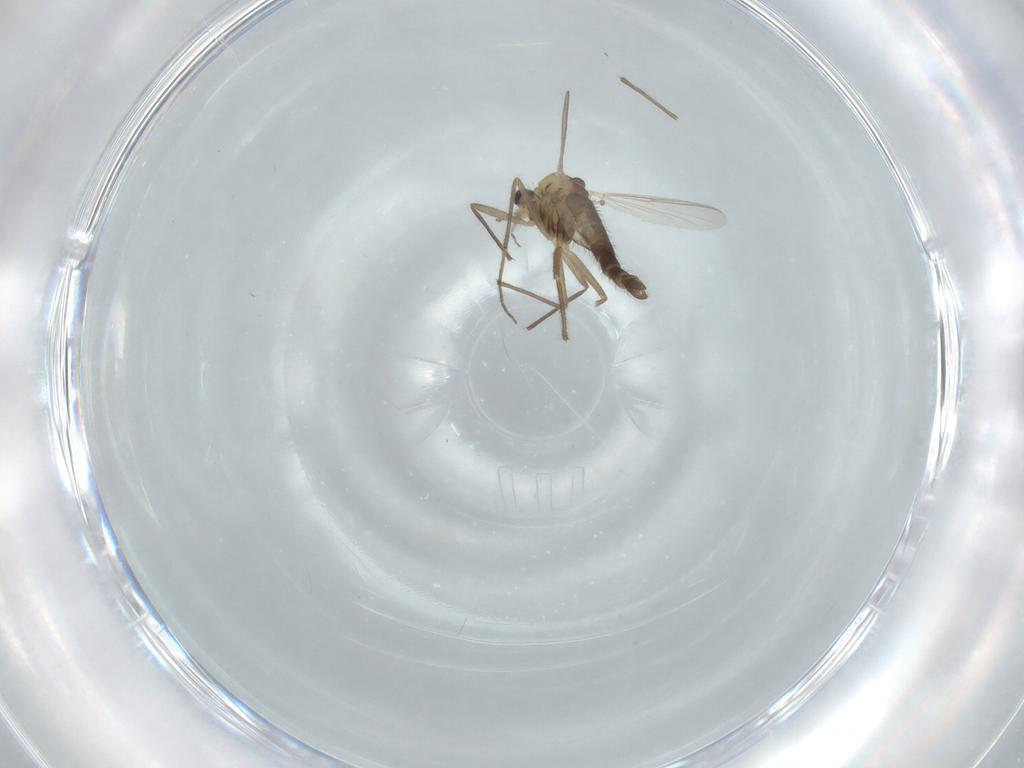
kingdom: Animalia
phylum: Arthropoda
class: Insecta
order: Diptera
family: Chironomidae
